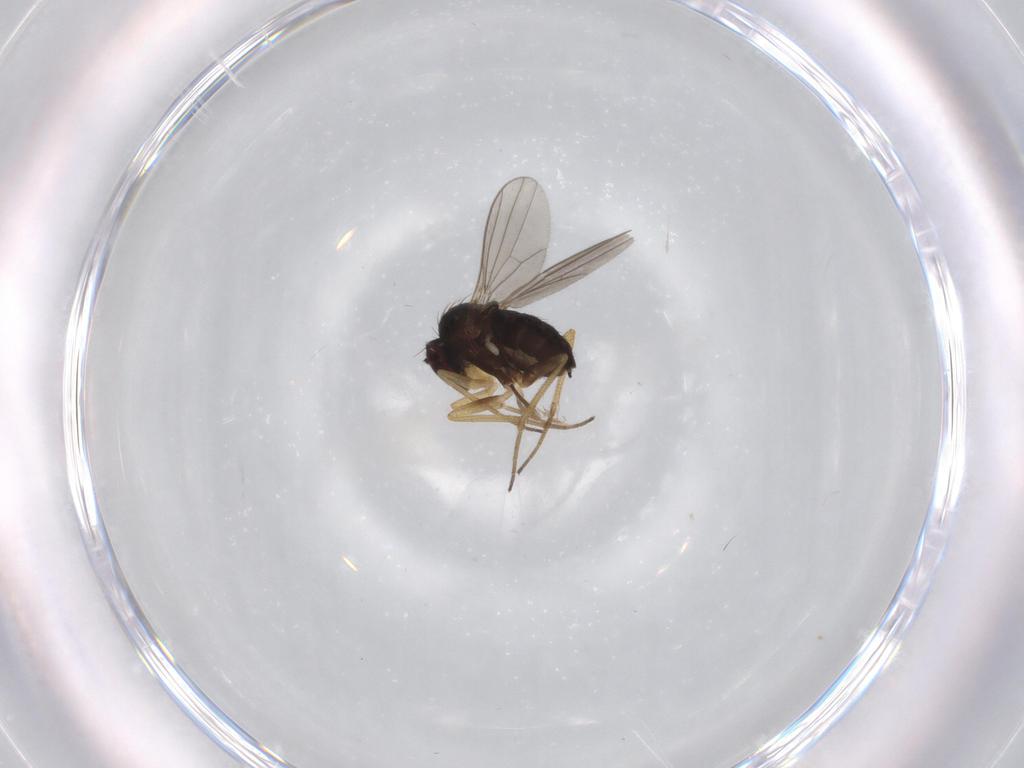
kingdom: Animalia
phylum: Arthropoda
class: Insecta
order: Diptera
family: Dolichopodidae
